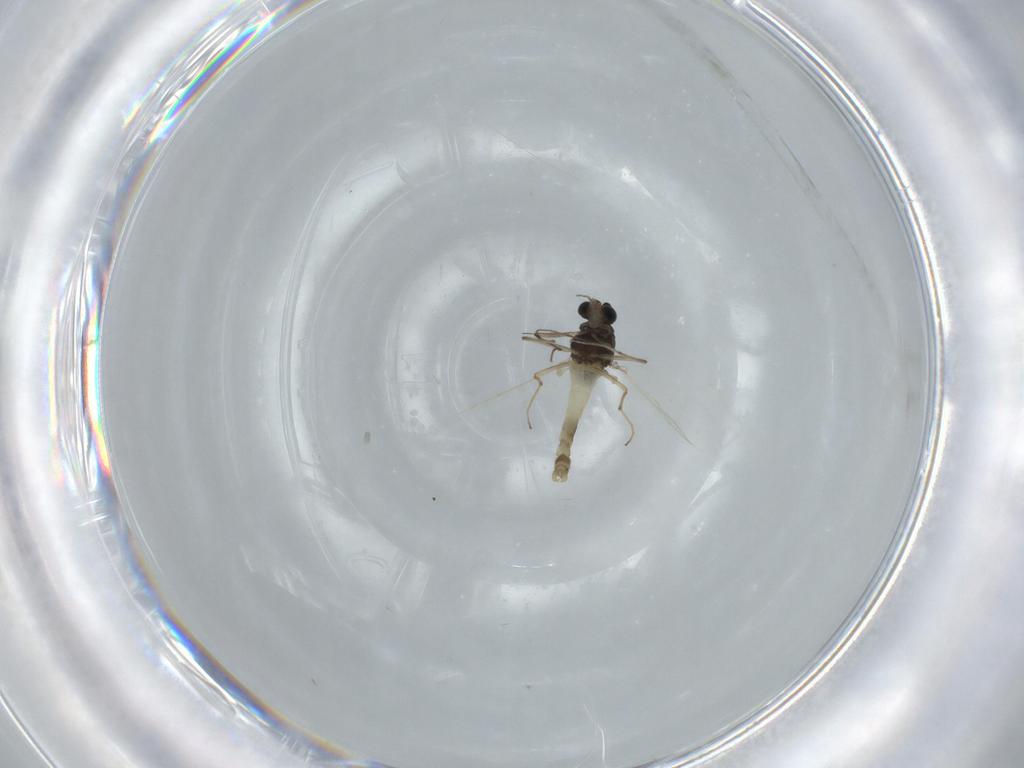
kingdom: Animalia
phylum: Arthropoda
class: Insecta
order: Diptera
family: Chironomidae
